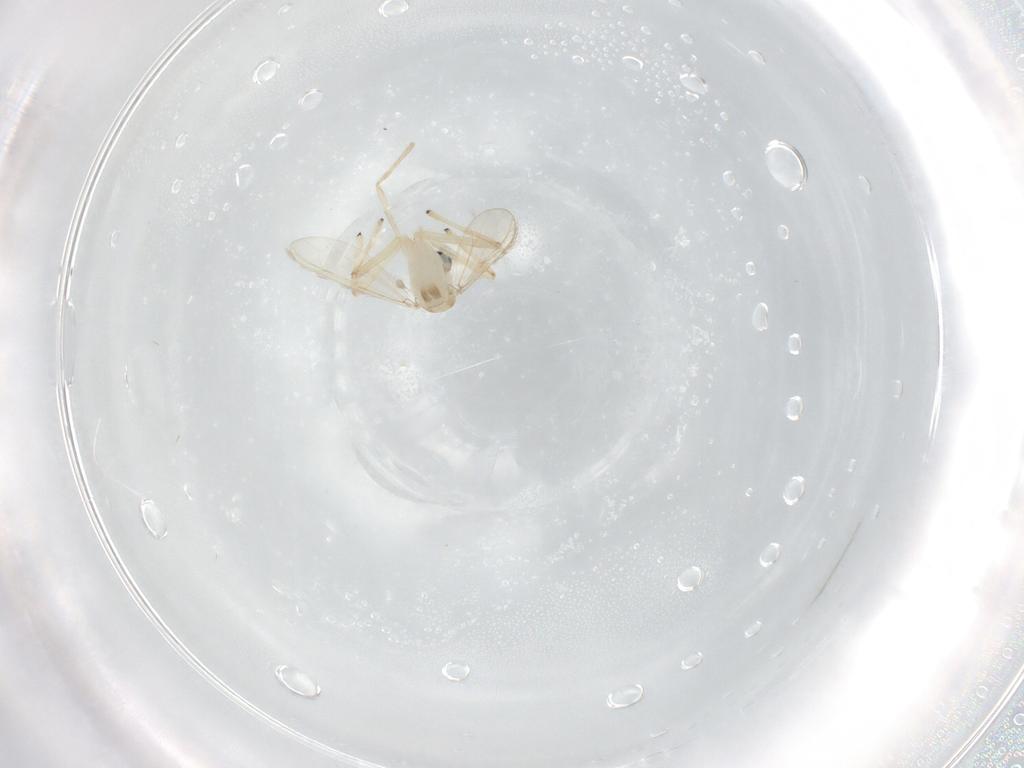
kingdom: Animalia
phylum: Arthropoda
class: Insecta
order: Diptera
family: Chironomidae
